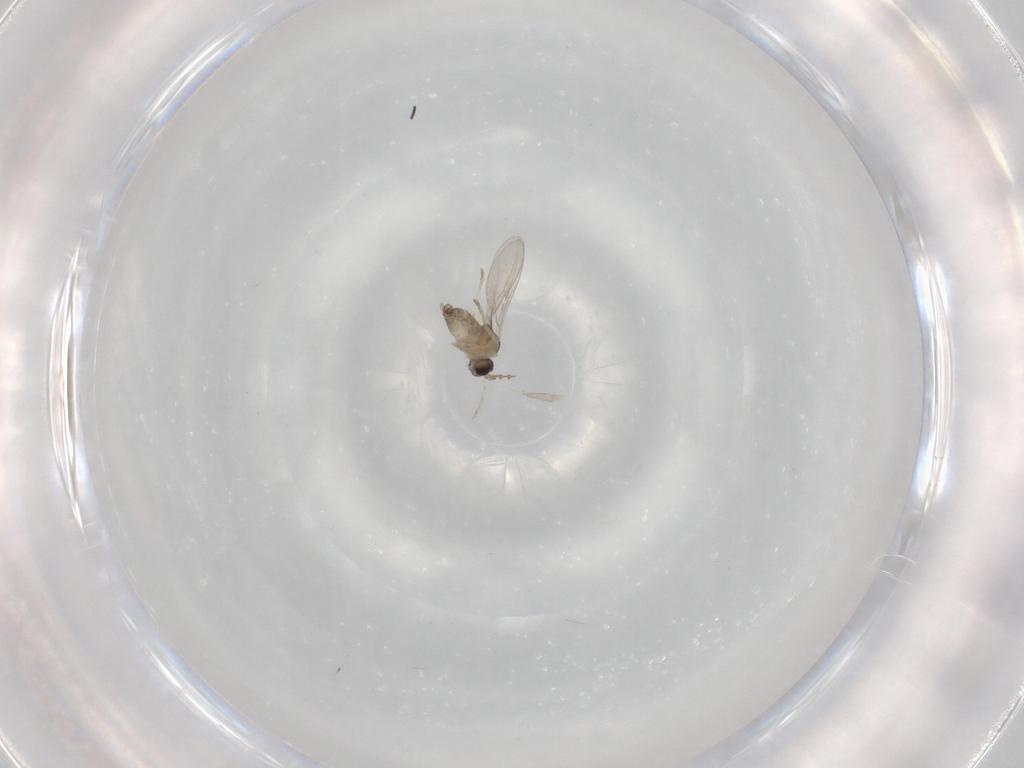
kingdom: Animalia
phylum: Arthropoda
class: Insecta
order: Diptera
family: Cecidomyiidae
